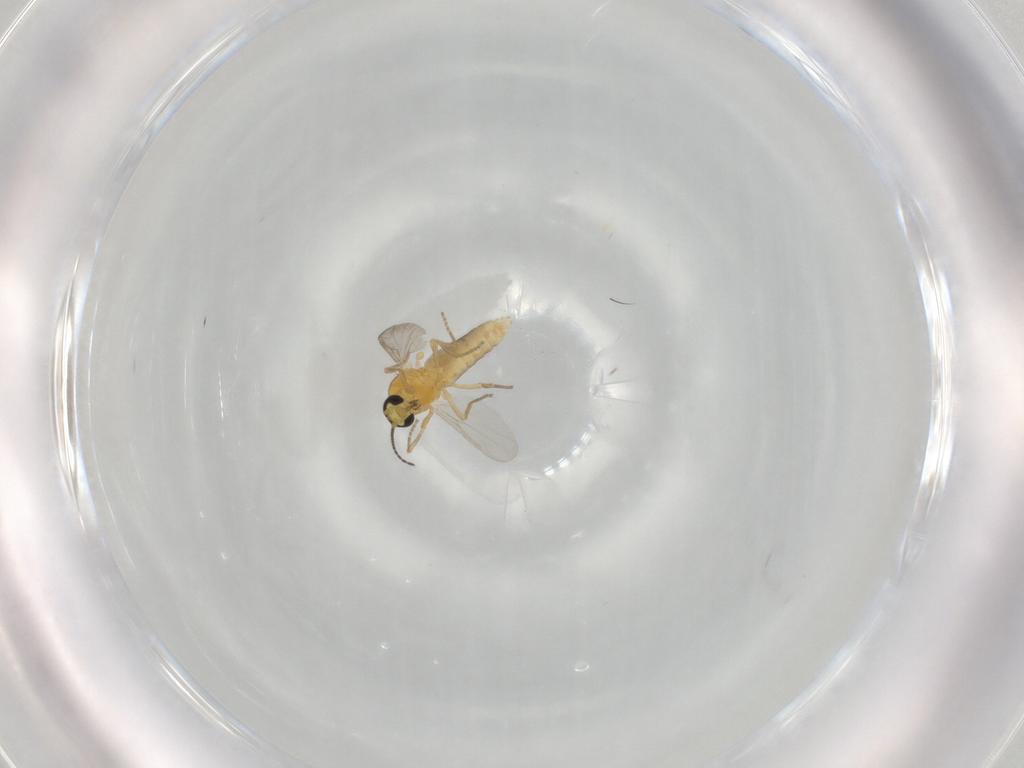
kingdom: Animalia
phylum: Arthropoda
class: Insecta
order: Diptera
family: Ceratopogonidae
